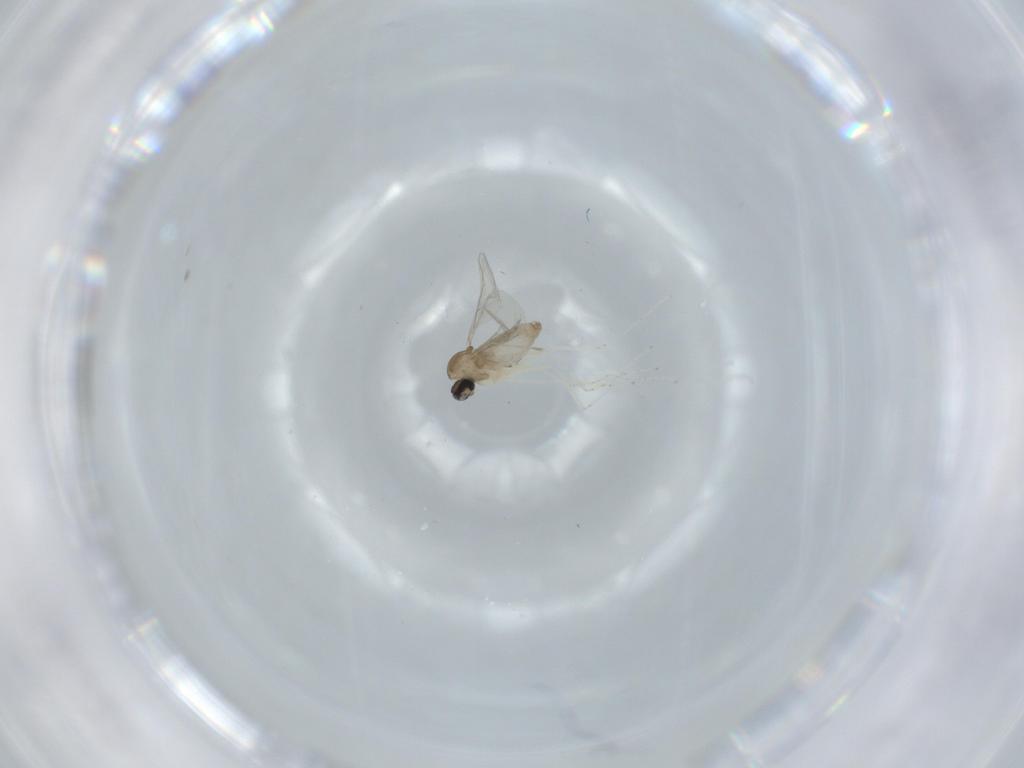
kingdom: Animalia
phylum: Arthropoda
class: Insecta
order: Diptera
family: Cecidomyiidae
